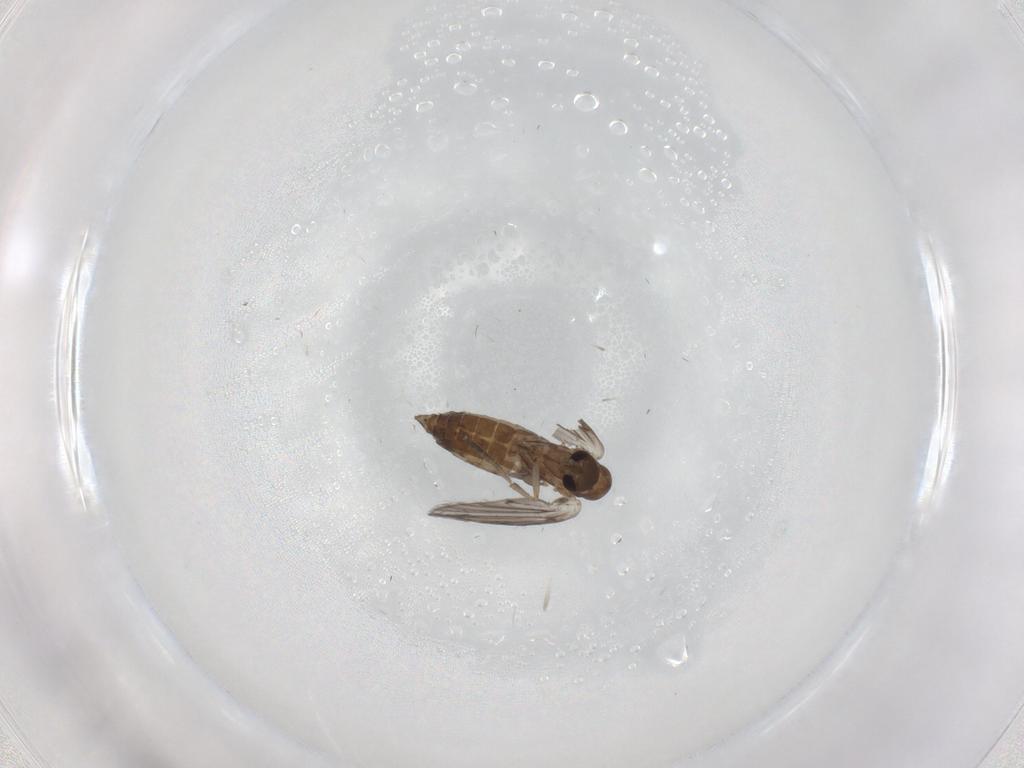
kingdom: Animalia
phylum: Arthropoda
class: Insecta
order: Diptera
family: Psychodidae
